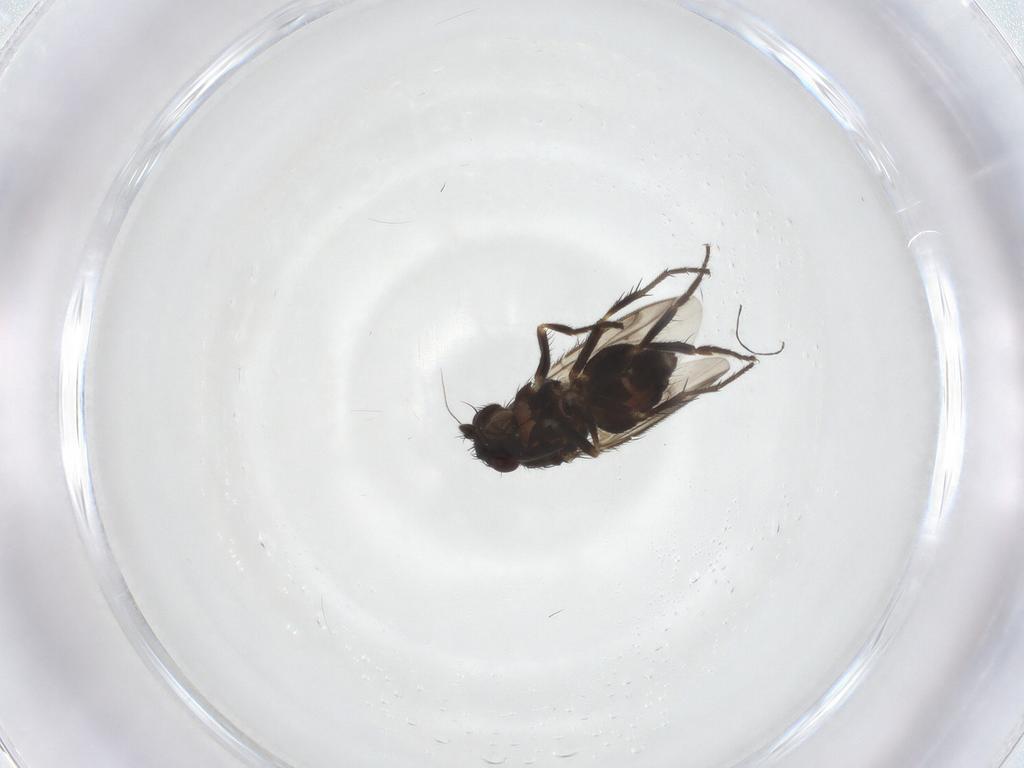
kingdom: Animalia
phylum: Arthropoda
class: Insecta
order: Diptera
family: Sphaeroceridae
